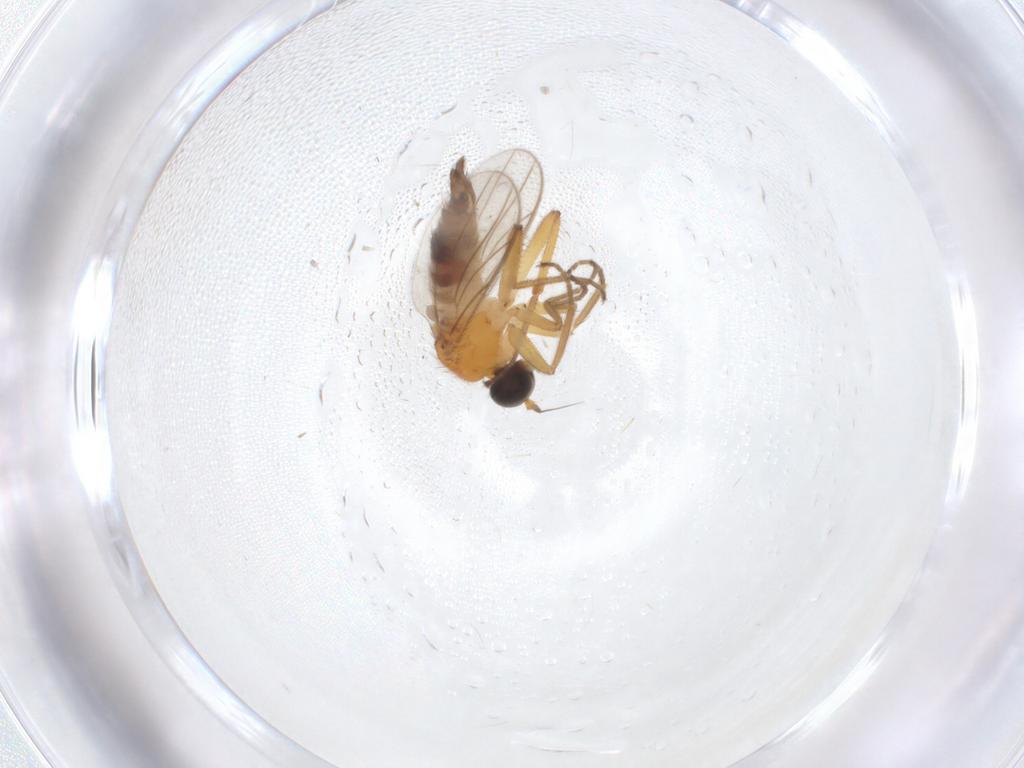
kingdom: Animalia
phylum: Arthropoda
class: Insecta
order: Diptera
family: Hybotidae
